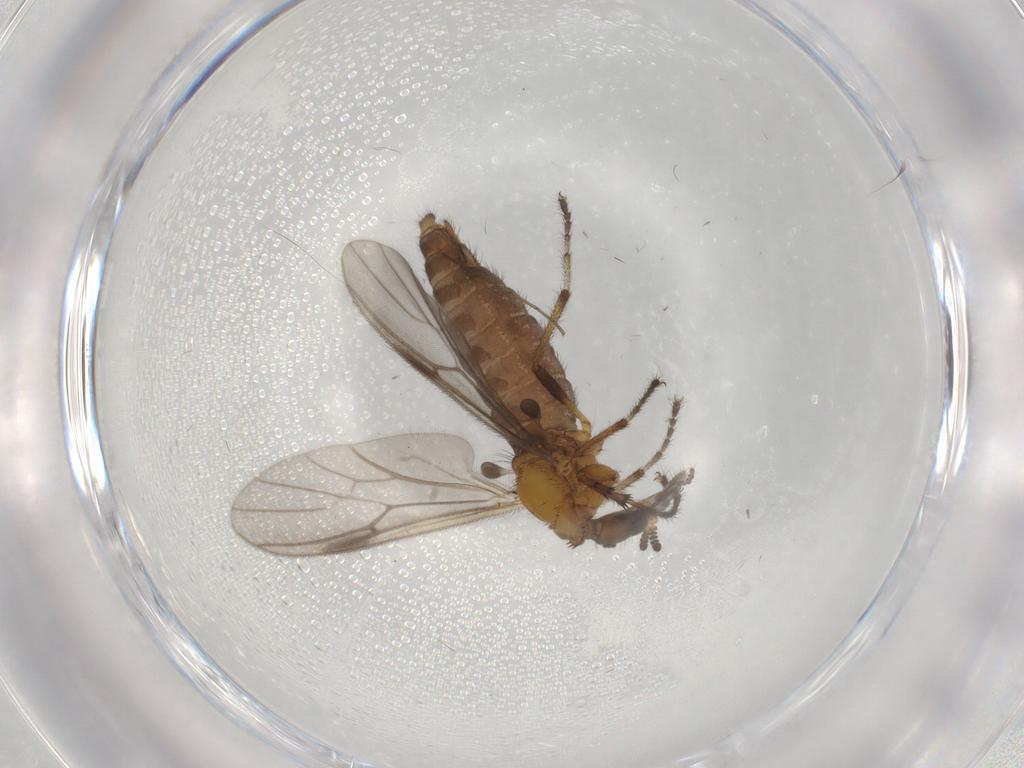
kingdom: Animalia
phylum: Arthropoda
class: Insecta
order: Diptera
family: Bibionidae
